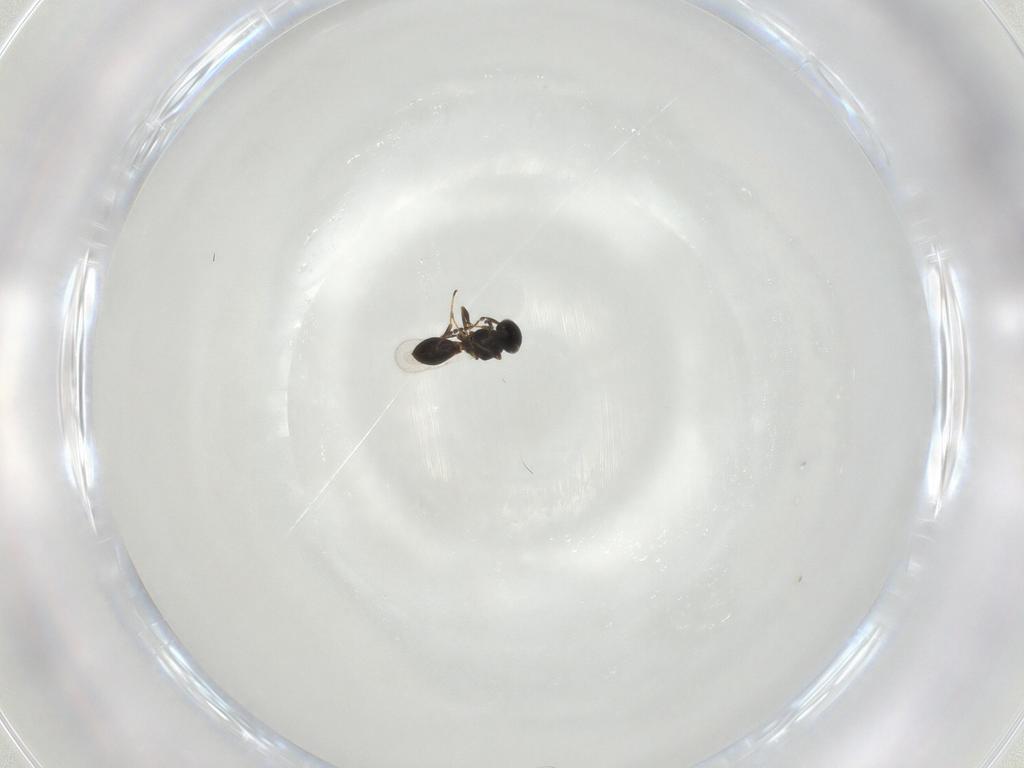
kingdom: Animalia
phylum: Arthropoda
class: Insecta
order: Hymenoptera
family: Platygastridae
